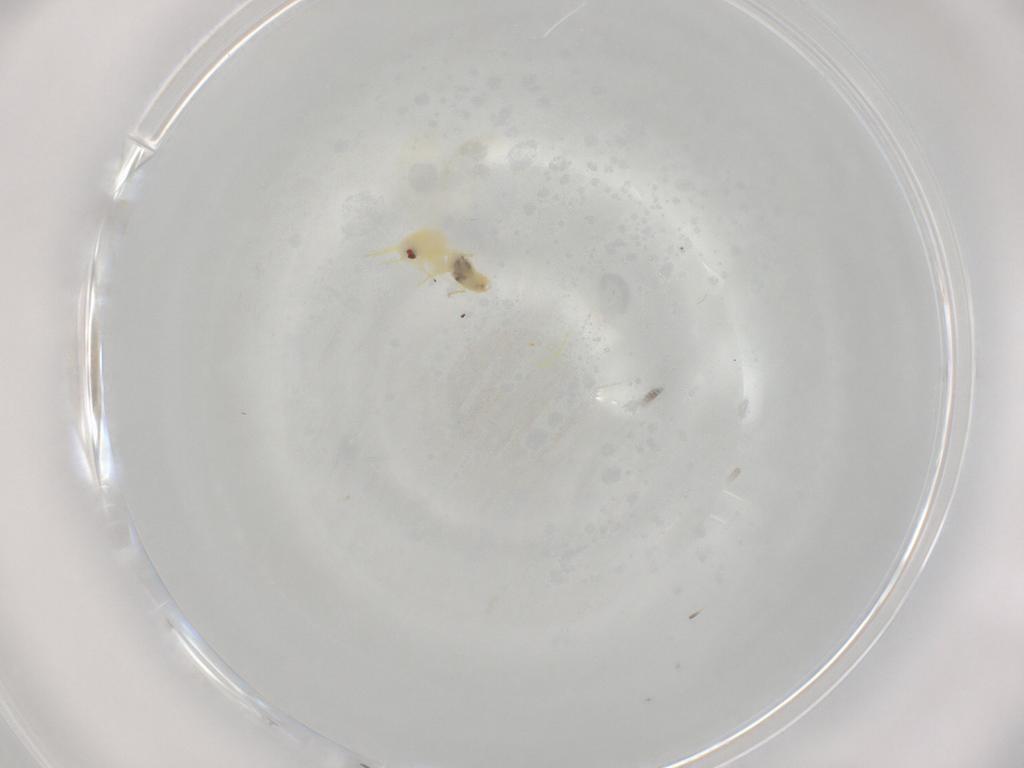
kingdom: Animalia
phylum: Arthropoda
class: Insecta
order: Hemiptera
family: Aleyrodidae
